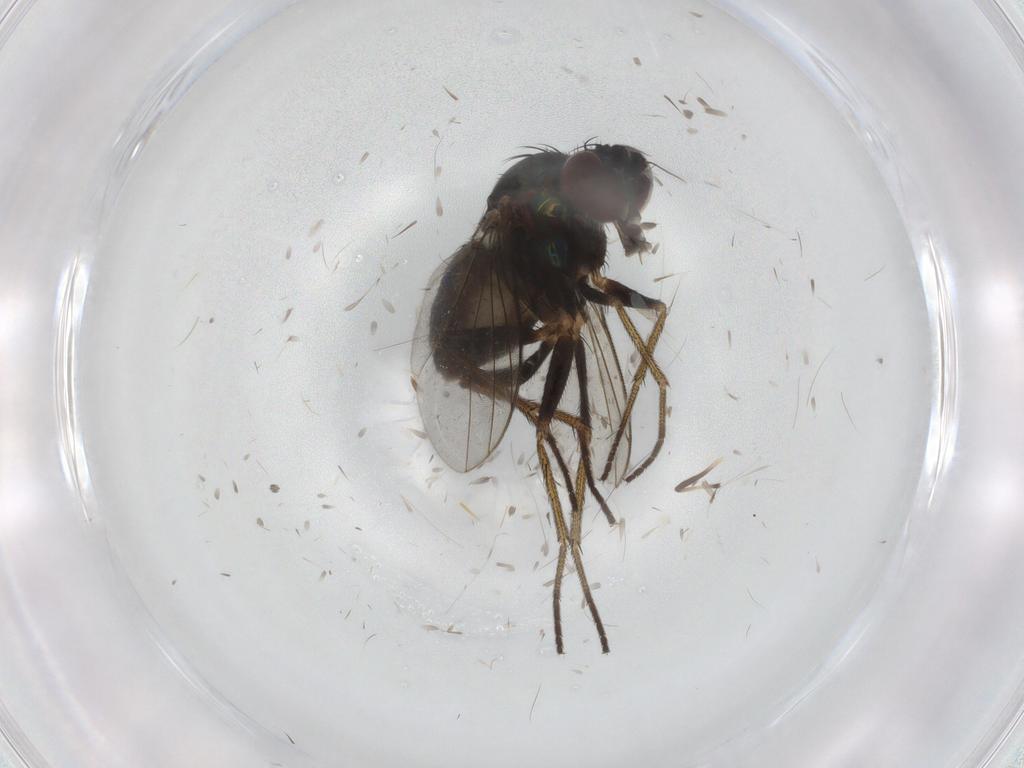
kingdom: Animalia
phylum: Arthropoda
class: Insecta
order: Diptera
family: Dolichopodidae
